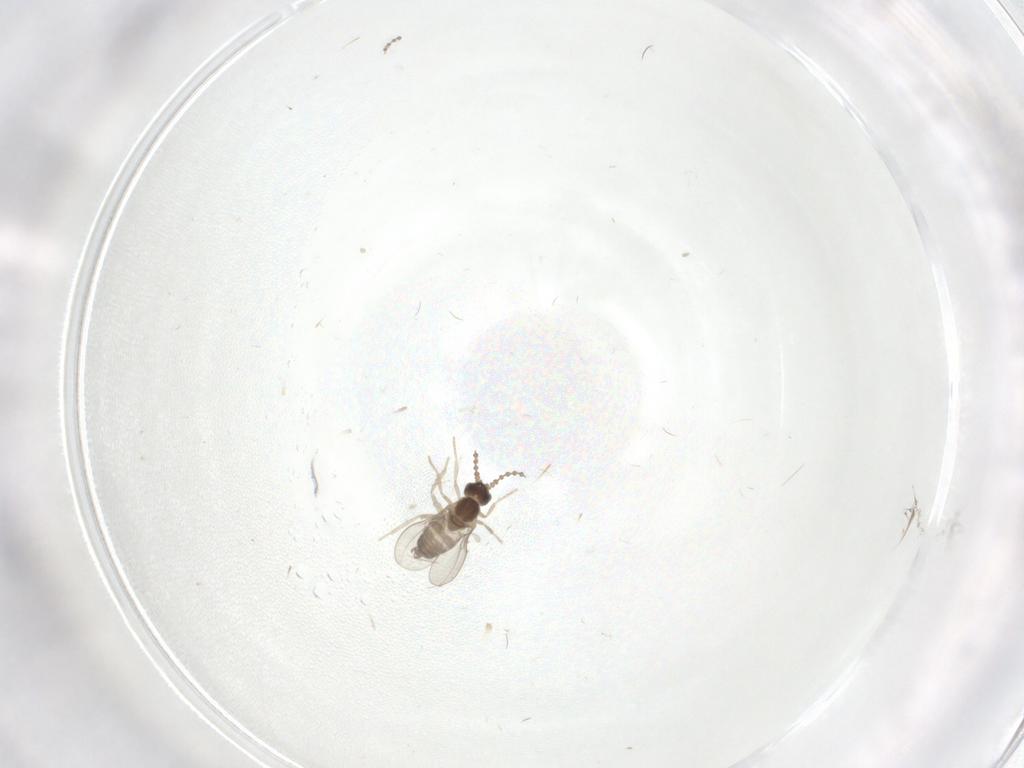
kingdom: Animalia
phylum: Arthropoda
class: Insecta
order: Diptera
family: Cecidomyiidae
